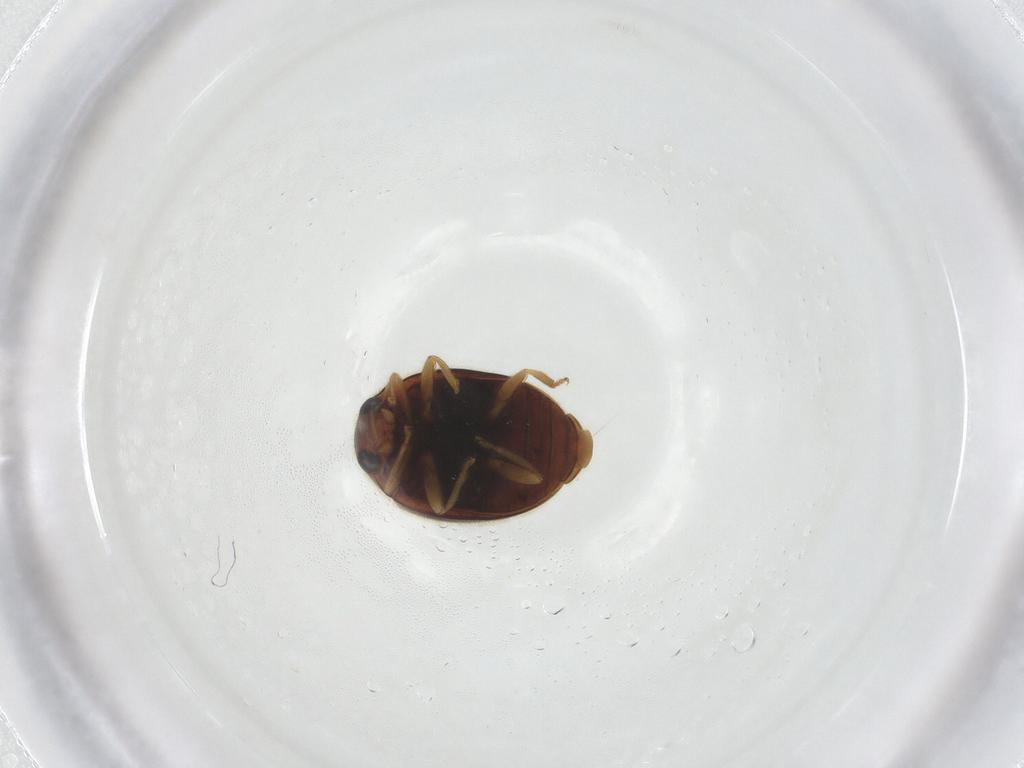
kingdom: Animalia
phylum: Arthropoda
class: Insecta
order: Coleoptera
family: Coccinellidae
